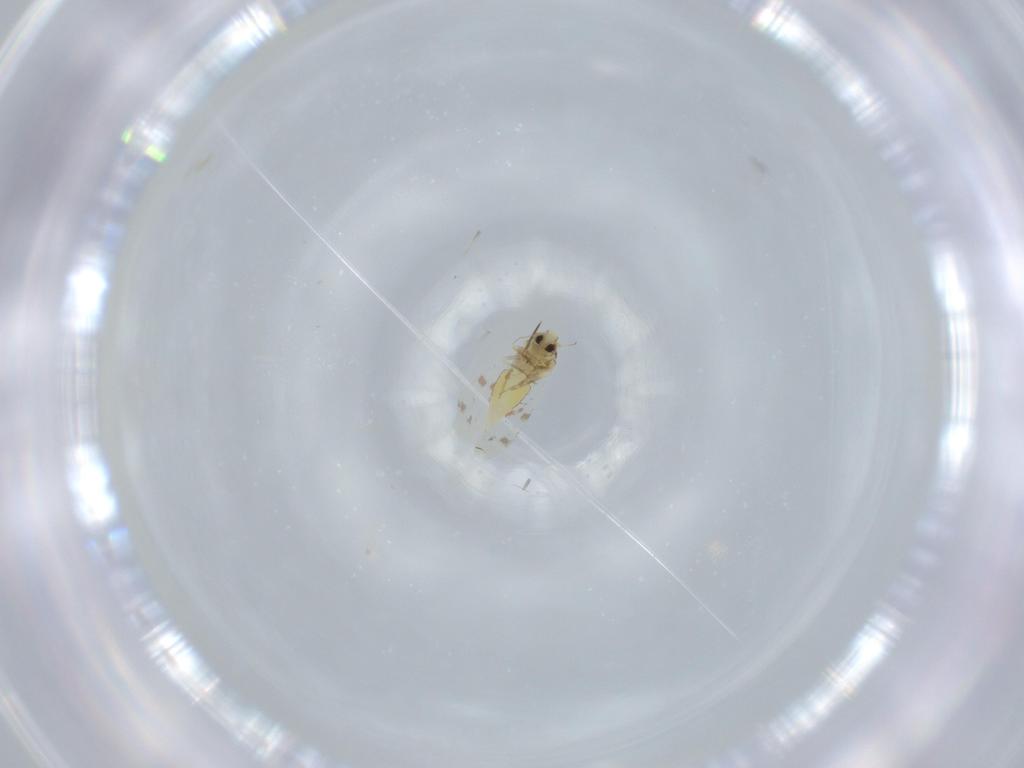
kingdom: Animalia
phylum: Arthropoda
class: Insecta
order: Hemiptera
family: Aleyrodidae
